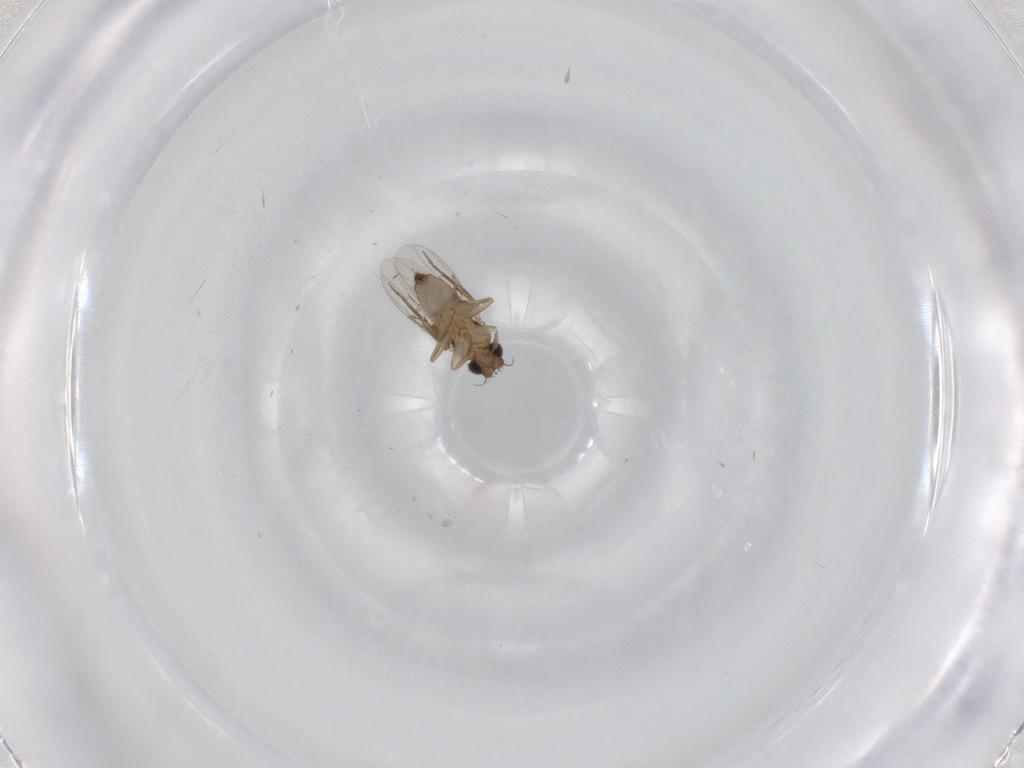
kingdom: Animalia
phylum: Arthropoda
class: Insecta
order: Diptera
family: Phoridae
